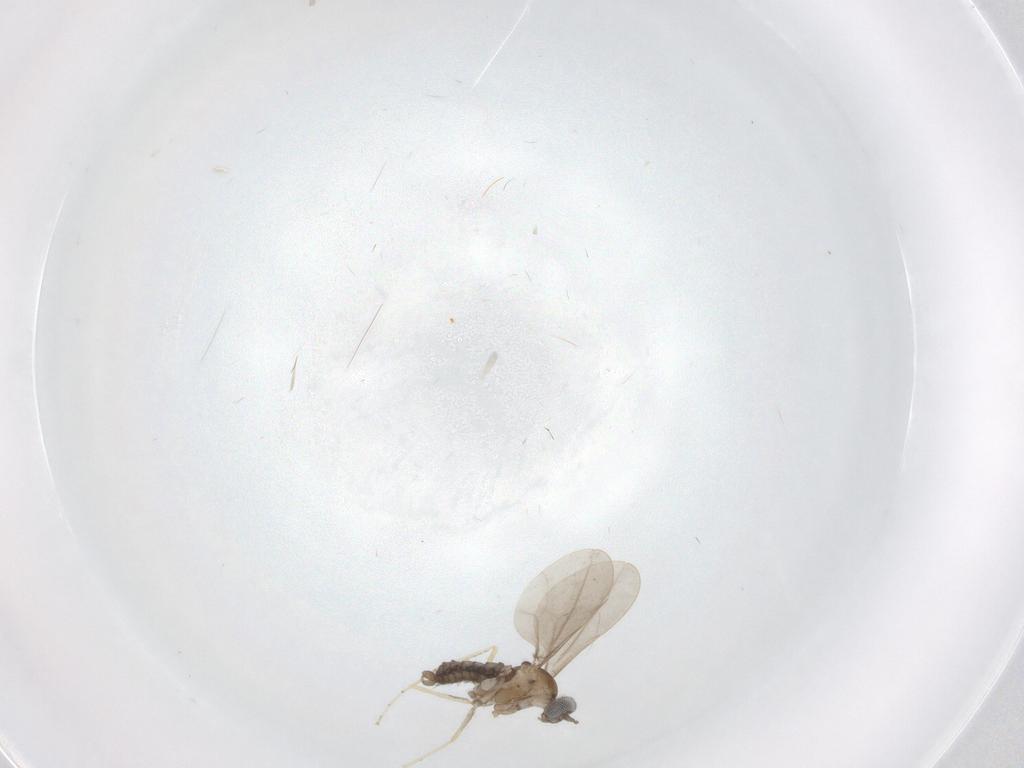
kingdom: Animalia
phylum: Arthropoda
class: Insecta
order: Diptera
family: Cecidomyiidae
